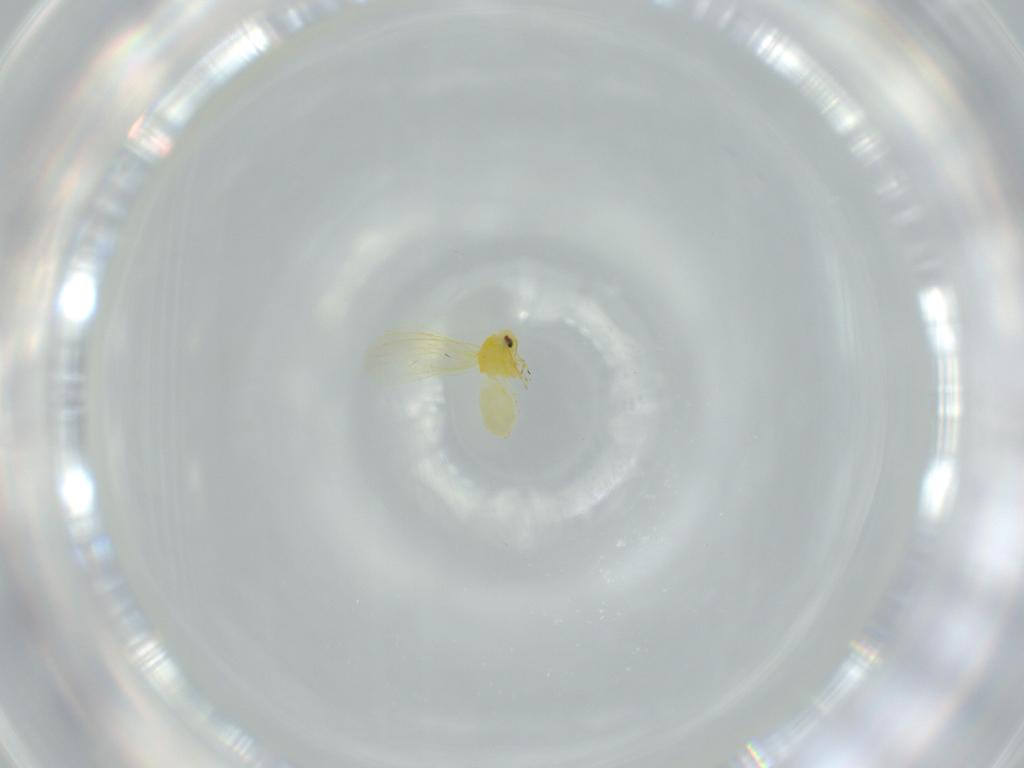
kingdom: Animalia
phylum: Arthropoda
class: Insecta
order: Hemiptera
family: Aleyrodidae
